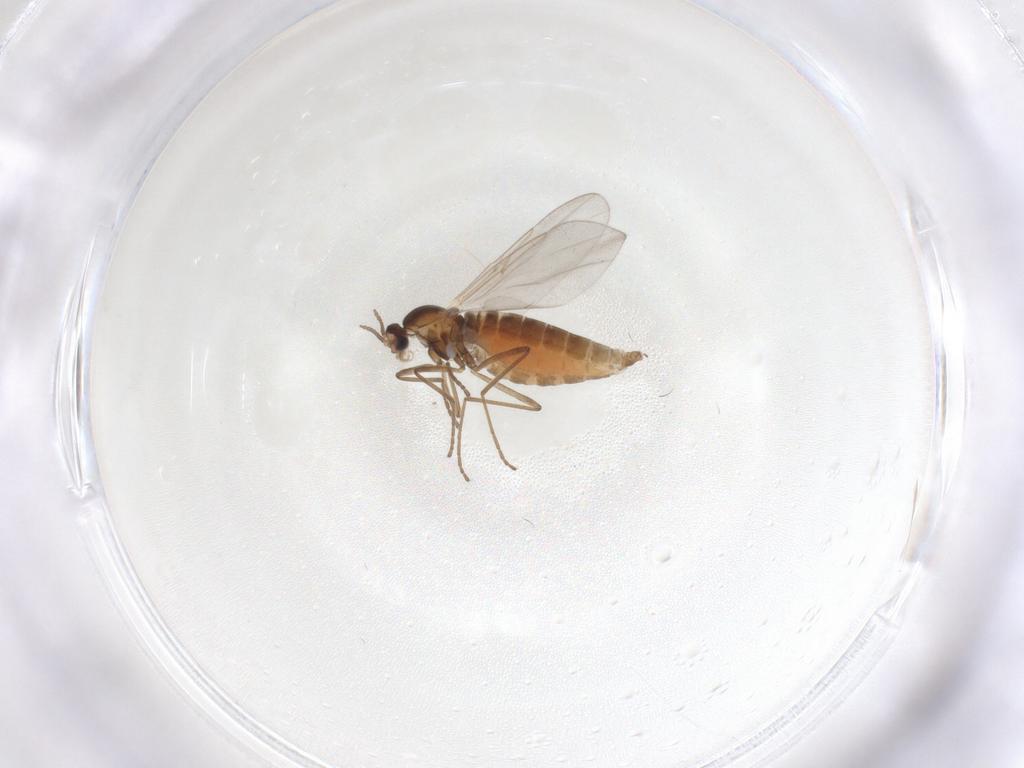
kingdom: Animalia
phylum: Arthropoda
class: Insecta
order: Diptera
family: Cecidomyiidae
